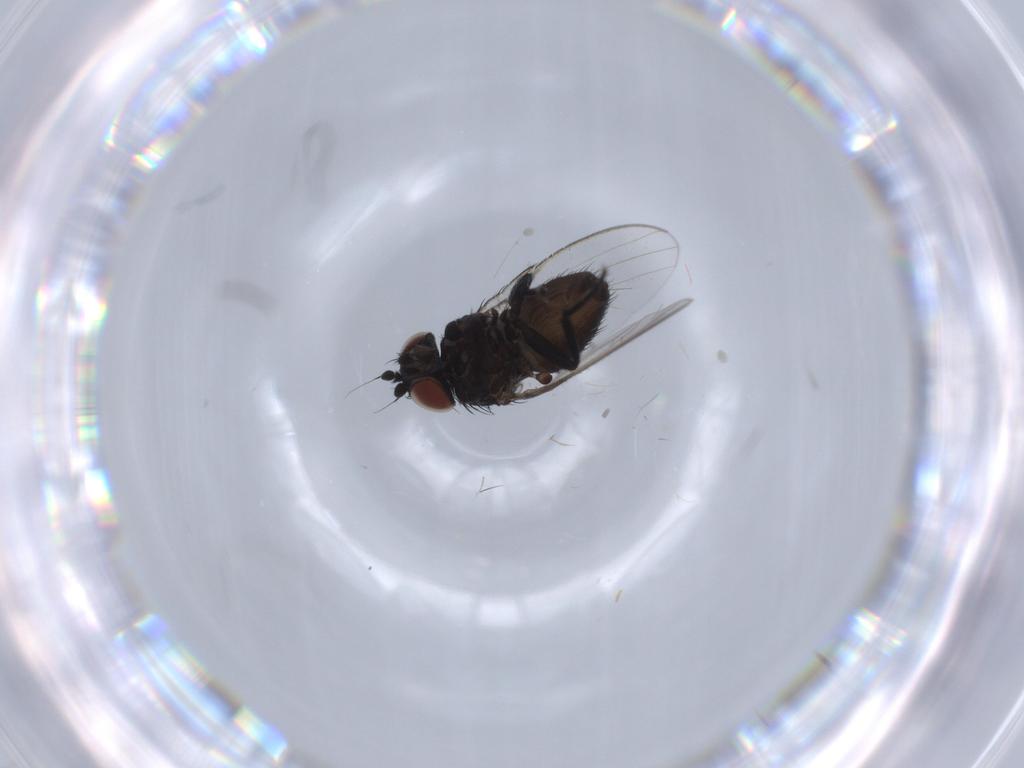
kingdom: Animalia
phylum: Arthropoda
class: Insecta
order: Diptera
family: Milichiidae
